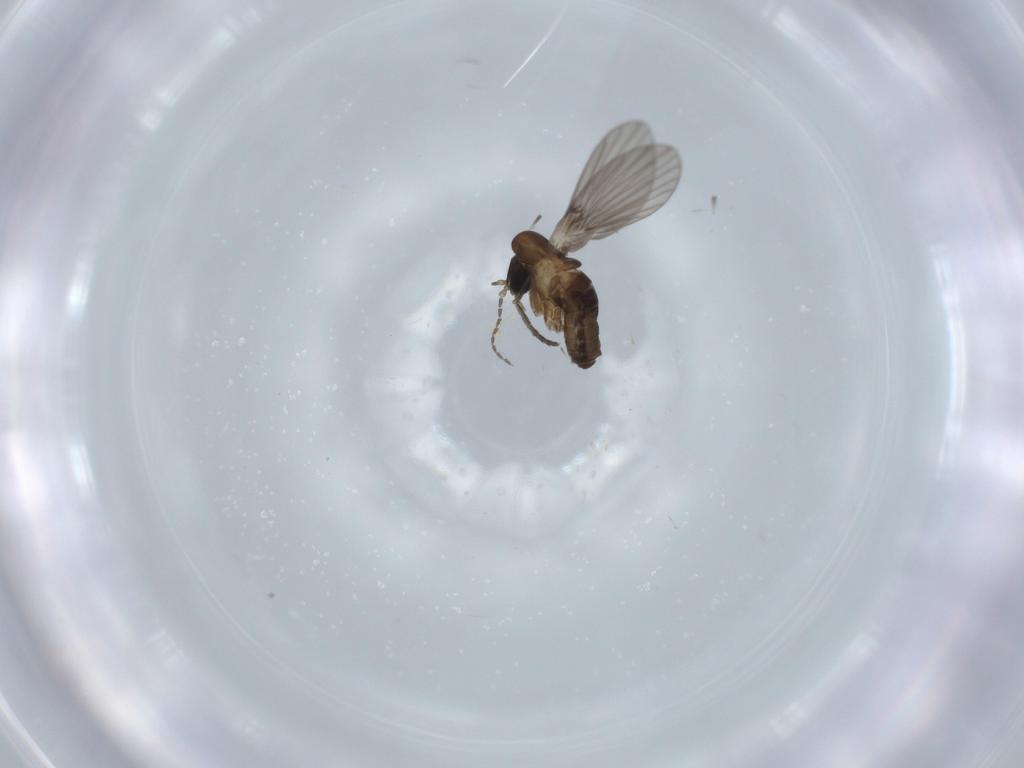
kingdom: Animalia
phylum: Arthropoda
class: Insecta
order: Diptera
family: Psychodidae
